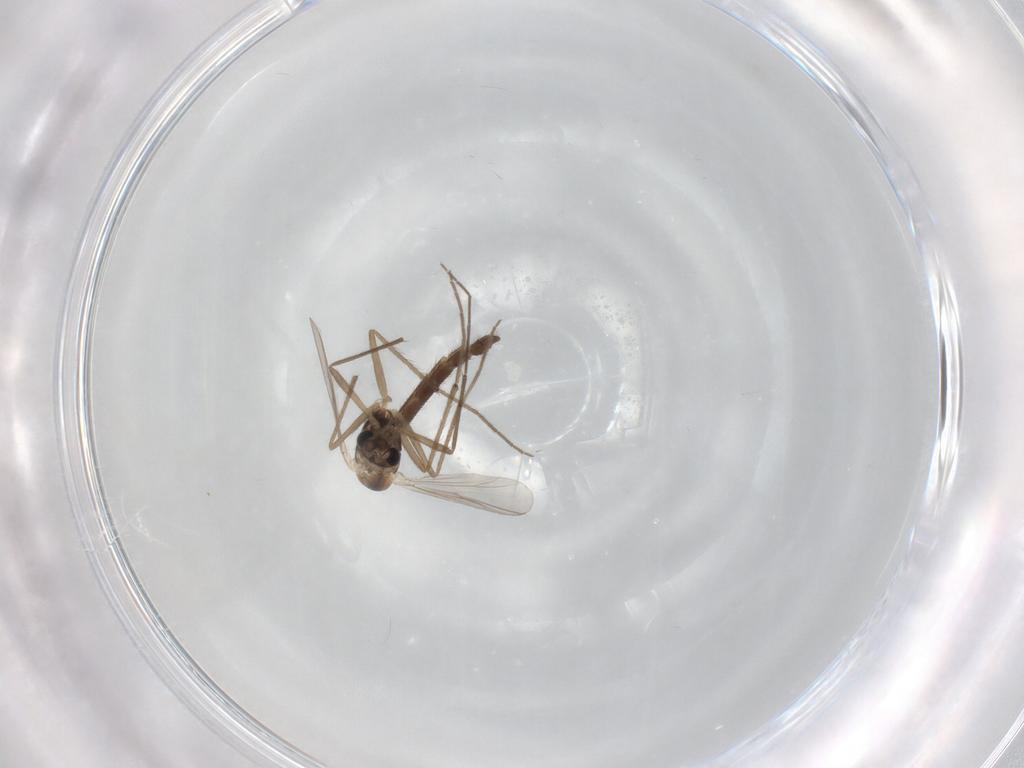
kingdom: Animalia
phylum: Arthropoda
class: Insecta
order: Diptera
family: Chironomidae
